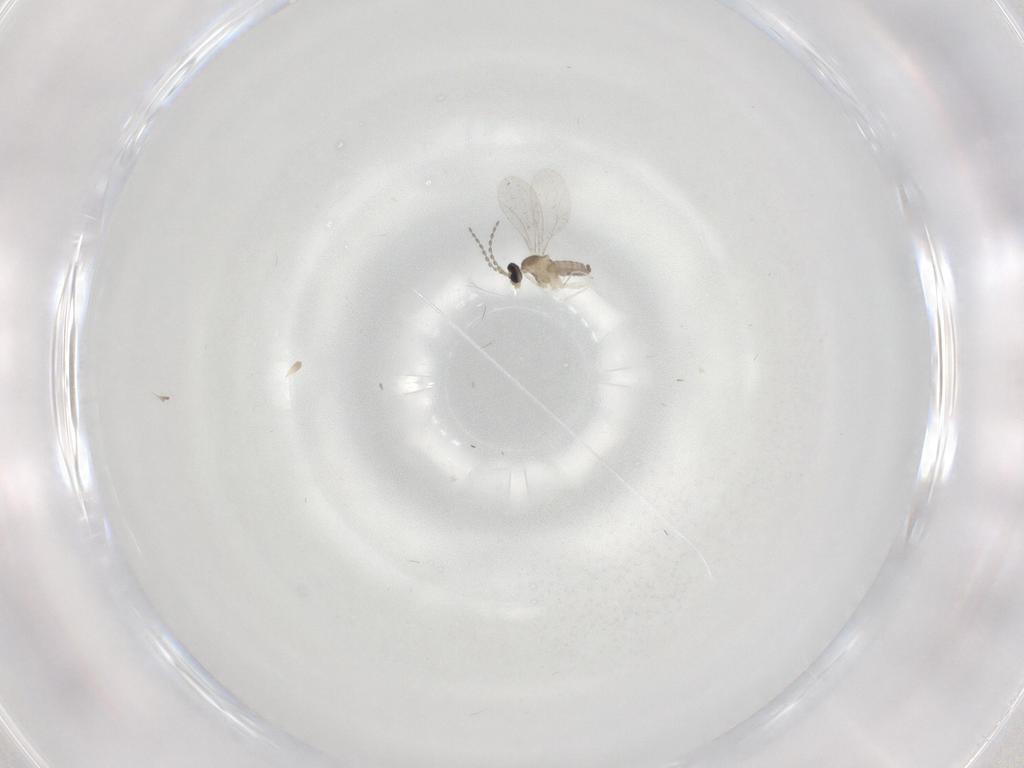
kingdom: Animalia
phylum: Arthropoda
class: Insecta
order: Diptera
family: Cecidomyiidae
